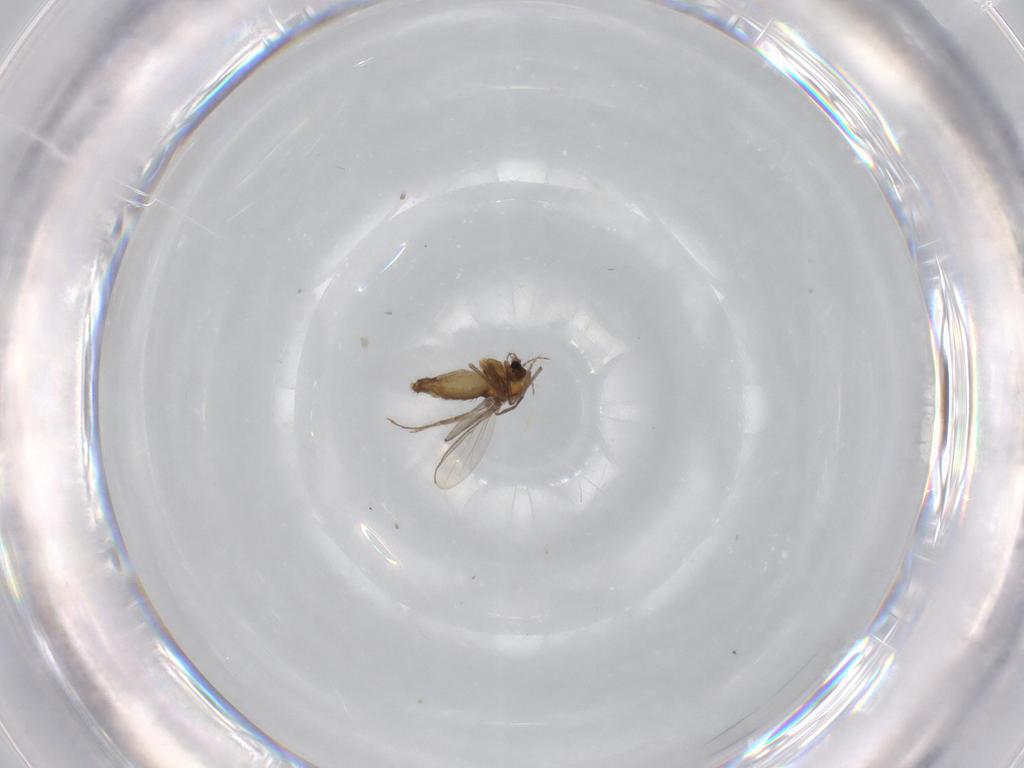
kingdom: Animalia
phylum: Arthropoda
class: Insecta
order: Diptera
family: Chironomidae
